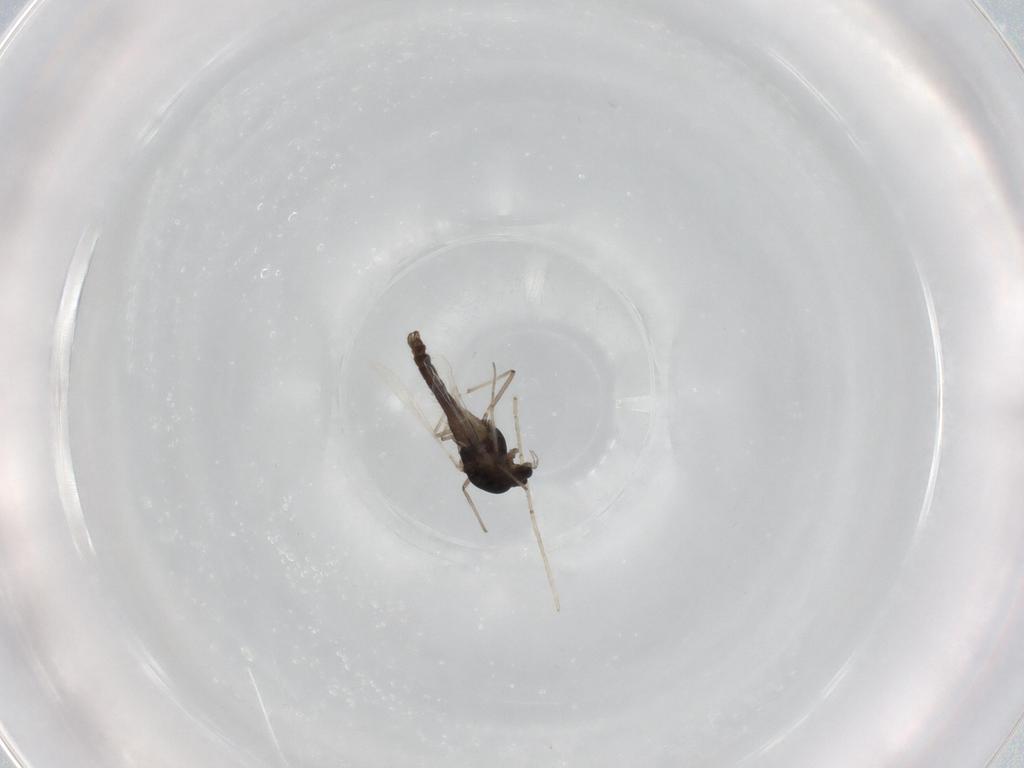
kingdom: Animalia
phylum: Arthropoda
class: Insecta
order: Diptera
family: Chironomidae
